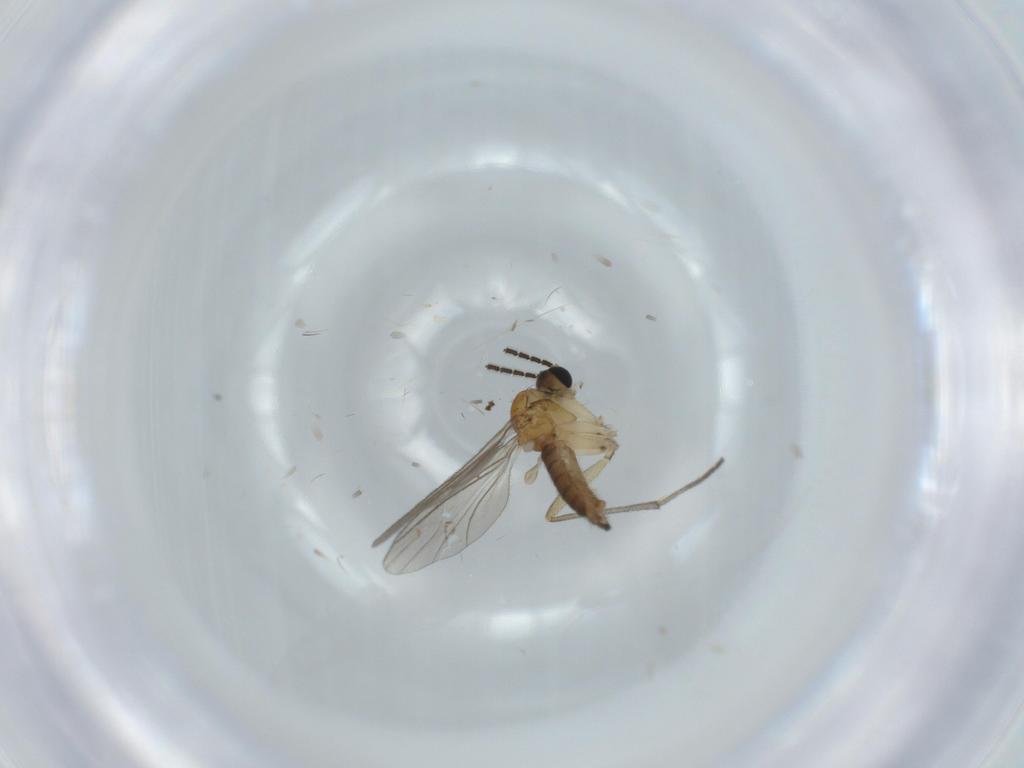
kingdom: Animalia
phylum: Arthropoda
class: Insecta
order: Diptera
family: Sciaridae
